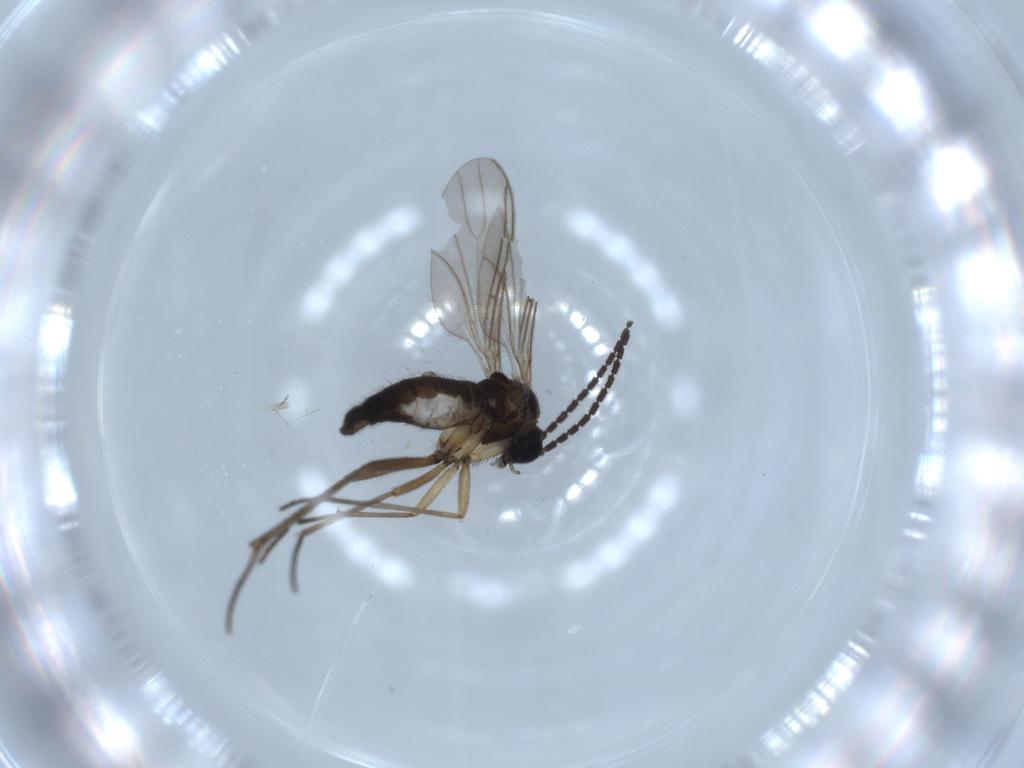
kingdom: Animalia
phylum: Arthropoda
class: Insecta
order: Diptera
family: Sciaridae
